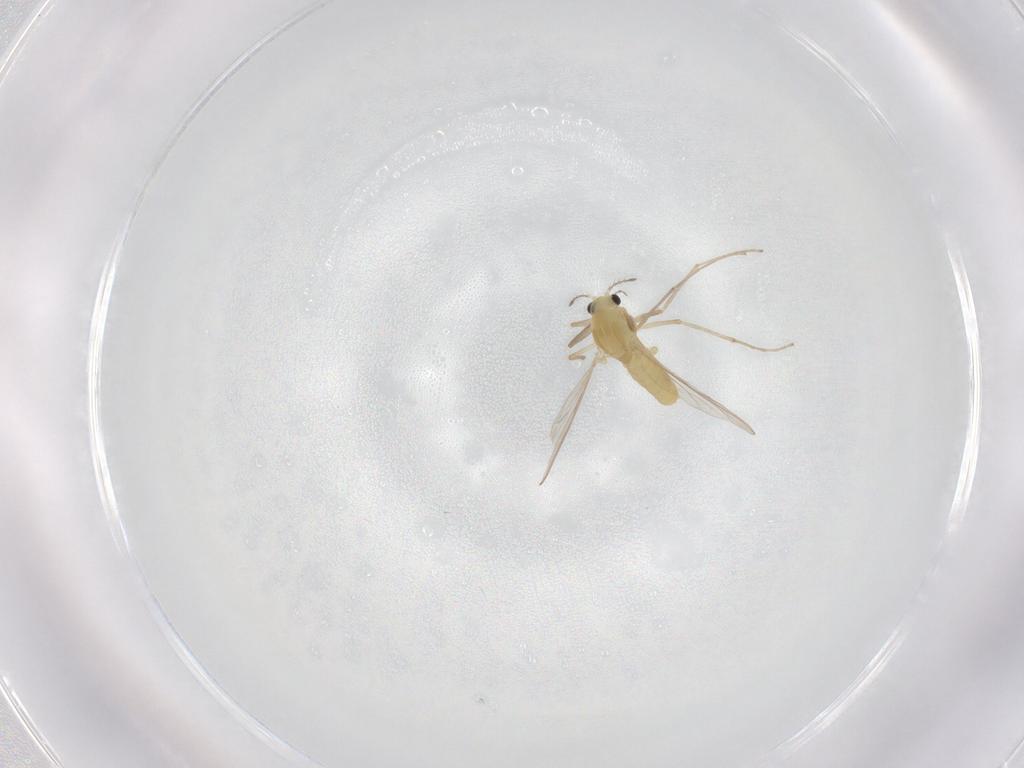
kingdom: Animalia
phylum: Arthropoda
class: Insecta
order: Diptera
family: Chironomidae
